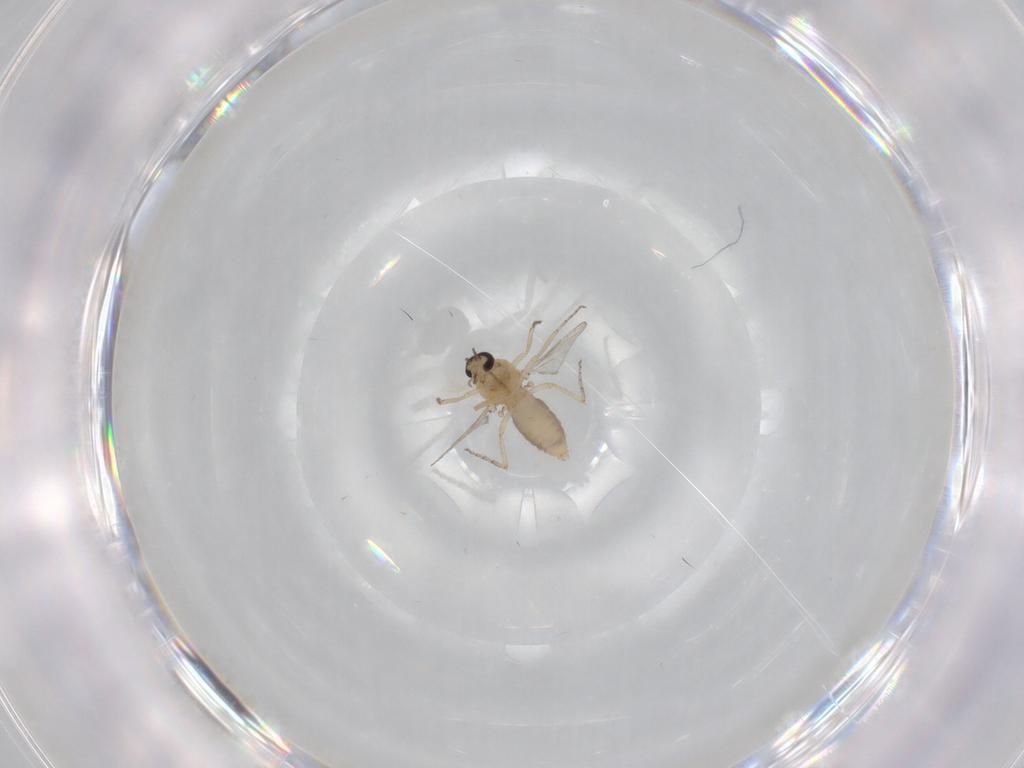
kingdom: Animalia
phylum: Arthropoda
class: Insecta
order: Diptera
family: Ceratopogonidae
